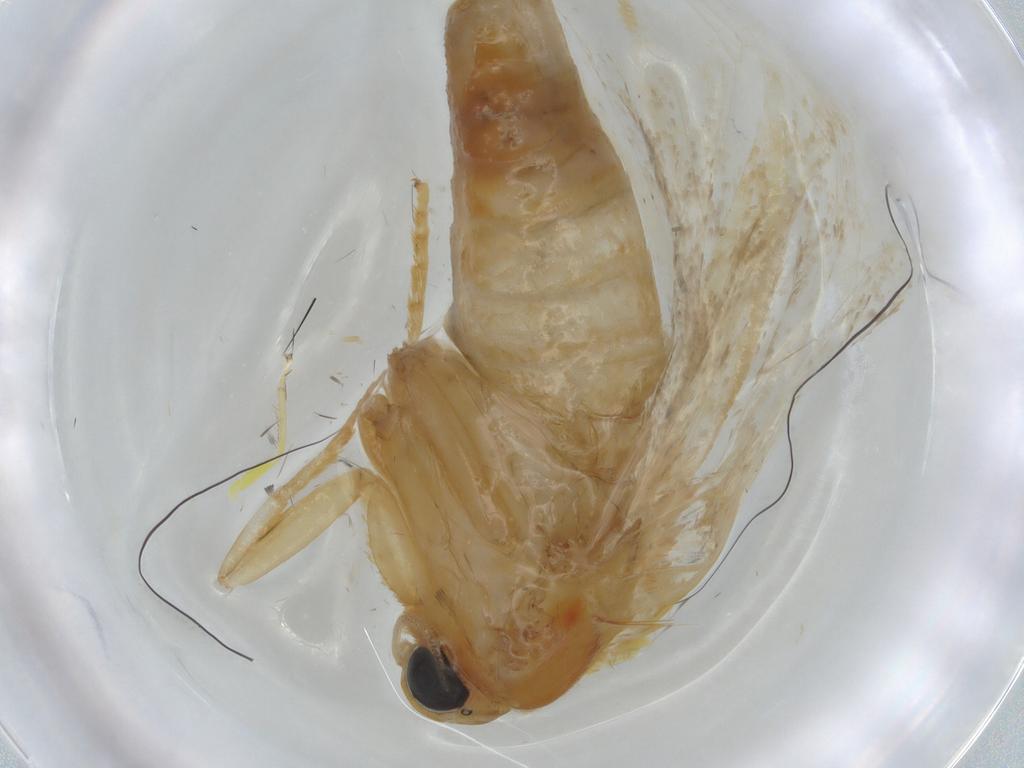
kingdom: Animalia
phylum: Arthropoda
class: Insecta
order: Lepidoptera
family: Tortricidae
